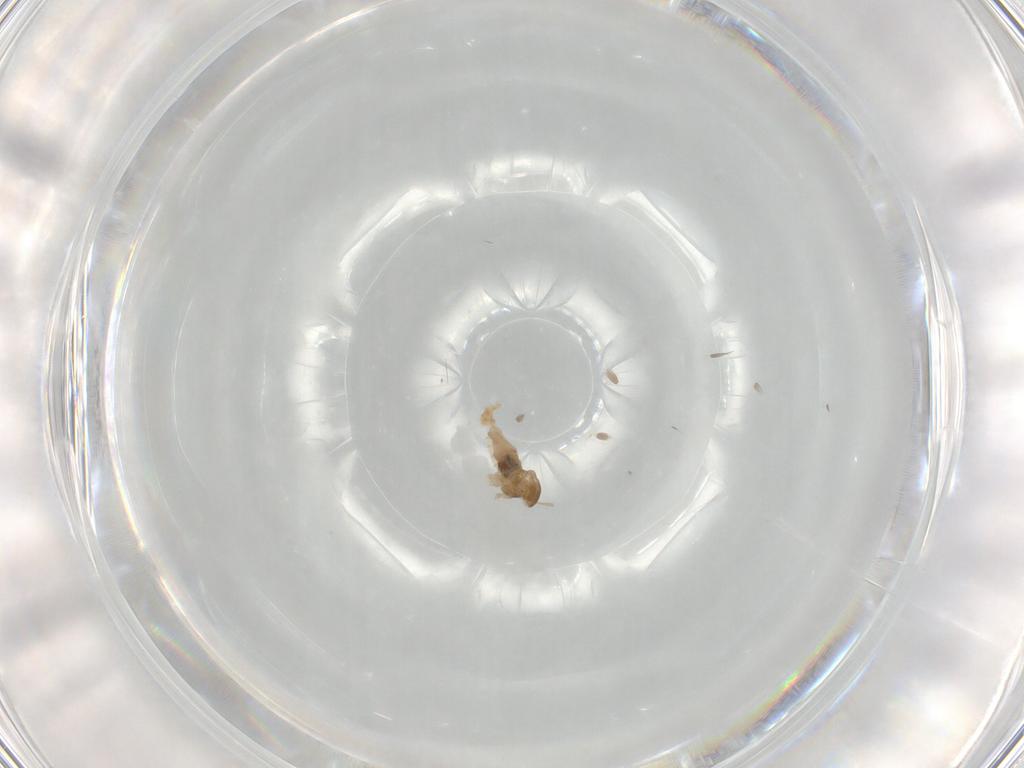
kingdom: Animalia
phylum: Arthropoda
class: Insecta
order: Diptera
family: Cecidomyiidae
